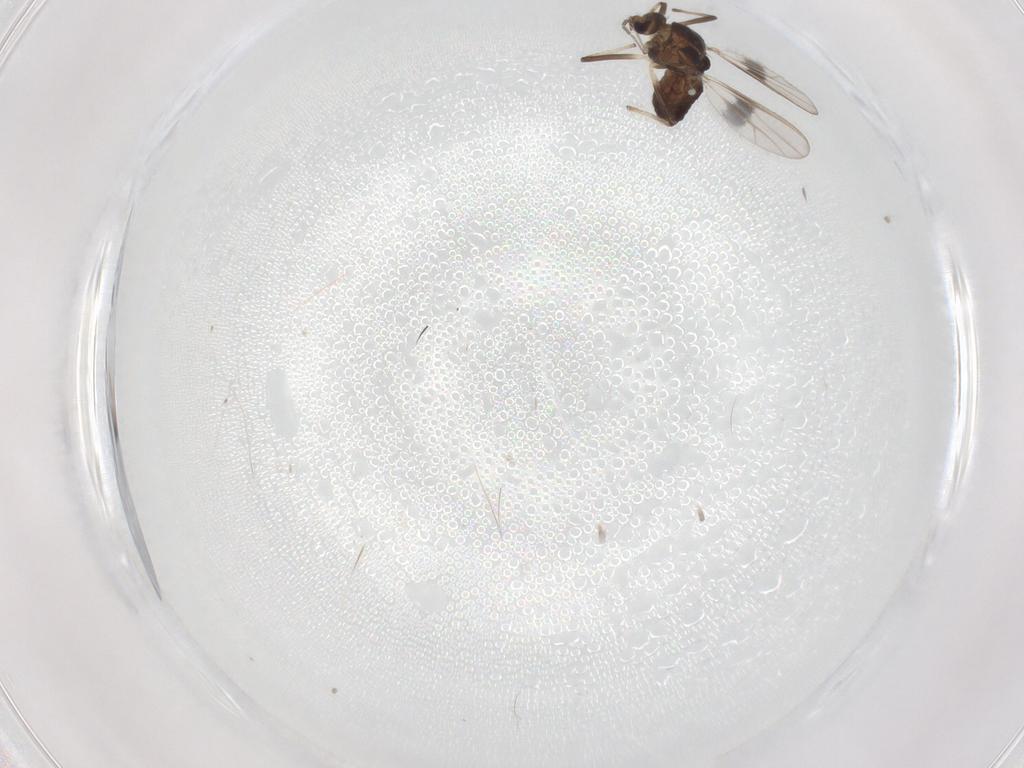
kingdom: Animalia
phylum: Arthropoda
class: Insecta
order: Diptera
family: Chironomidae
